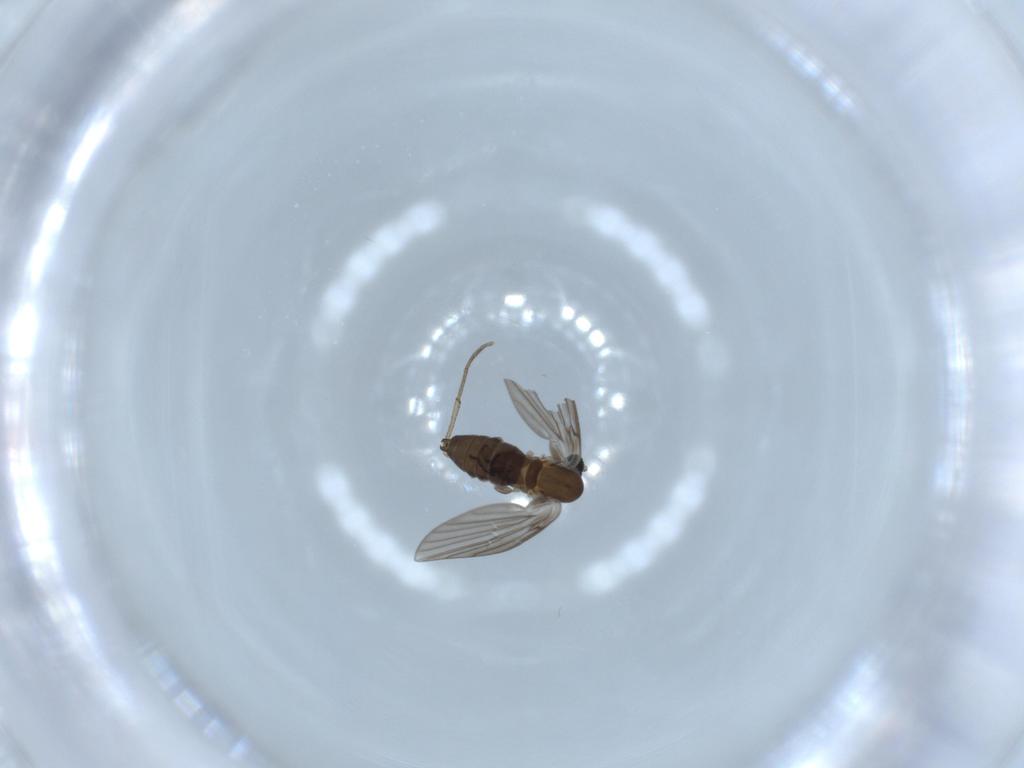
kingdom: Animalia
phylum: Arthropoda
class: Insecta
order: Diptera
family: Psychodidae
